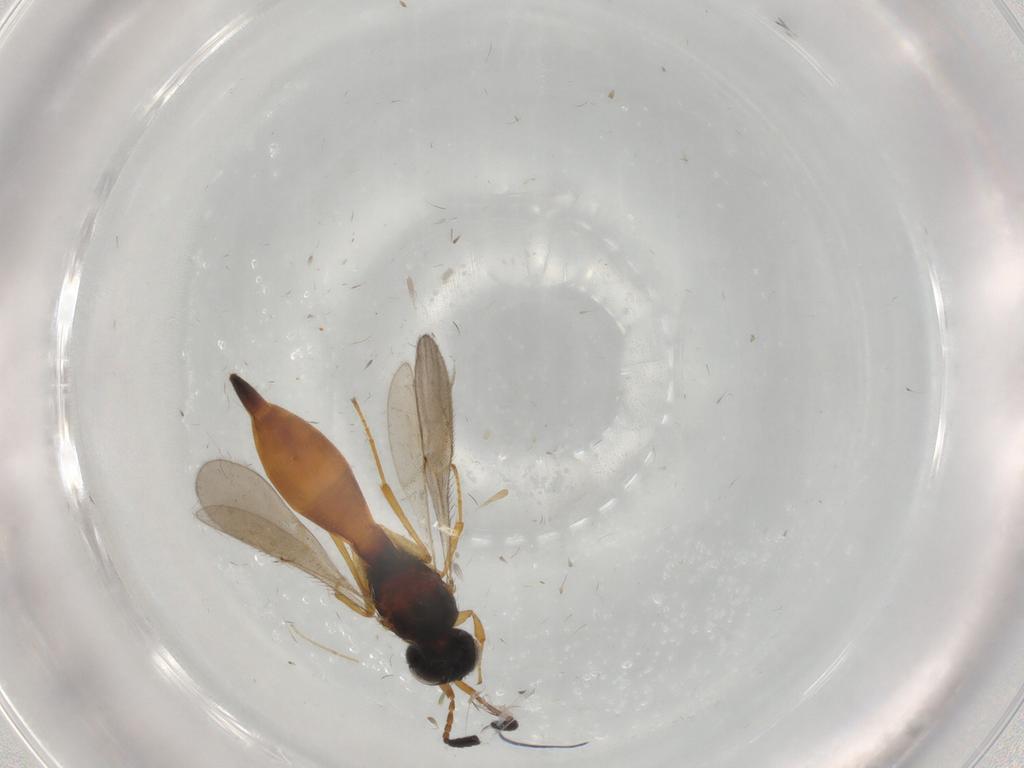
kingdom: Animalia
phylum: Arthropoda
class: Insecta
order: Hymenoptera
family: Scelionidae
